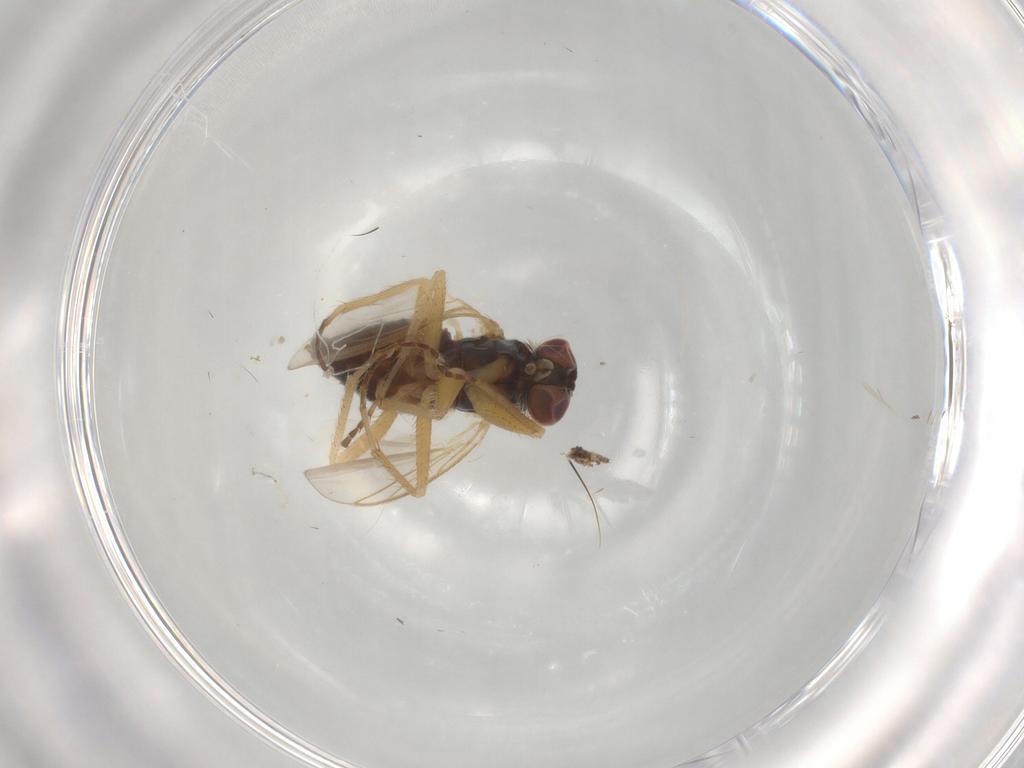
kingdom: Animalia
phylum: Arthropoda
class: Insecta
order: Diptera
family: Dolichopodidae
